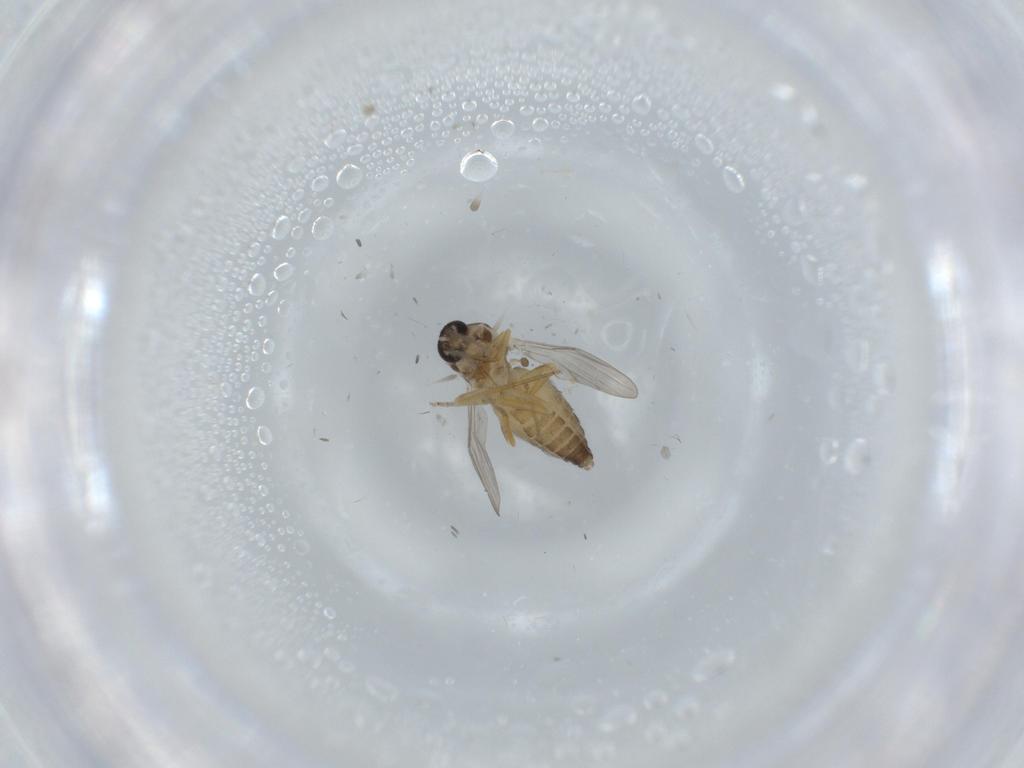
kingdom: Animalia
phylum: Arthropoda
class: Insecta
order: Diptera
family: Ceratopogonidae
